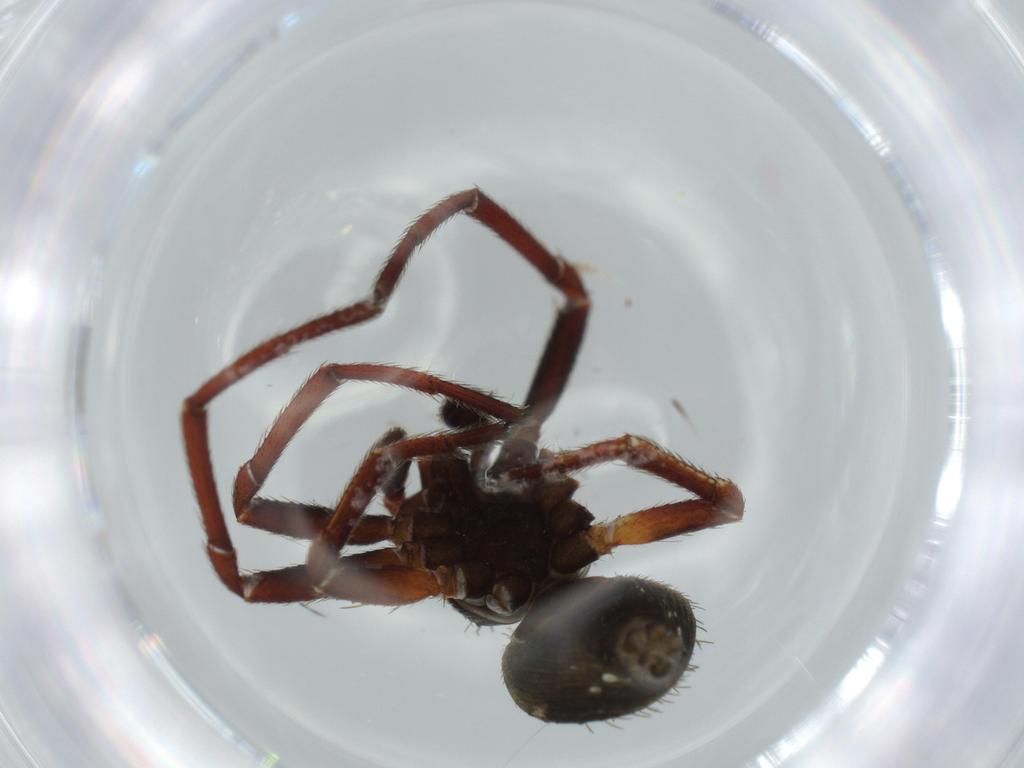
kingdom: Animalia
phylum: Arthropoda
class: Arachnida
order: Araneae
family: Thomisidae
